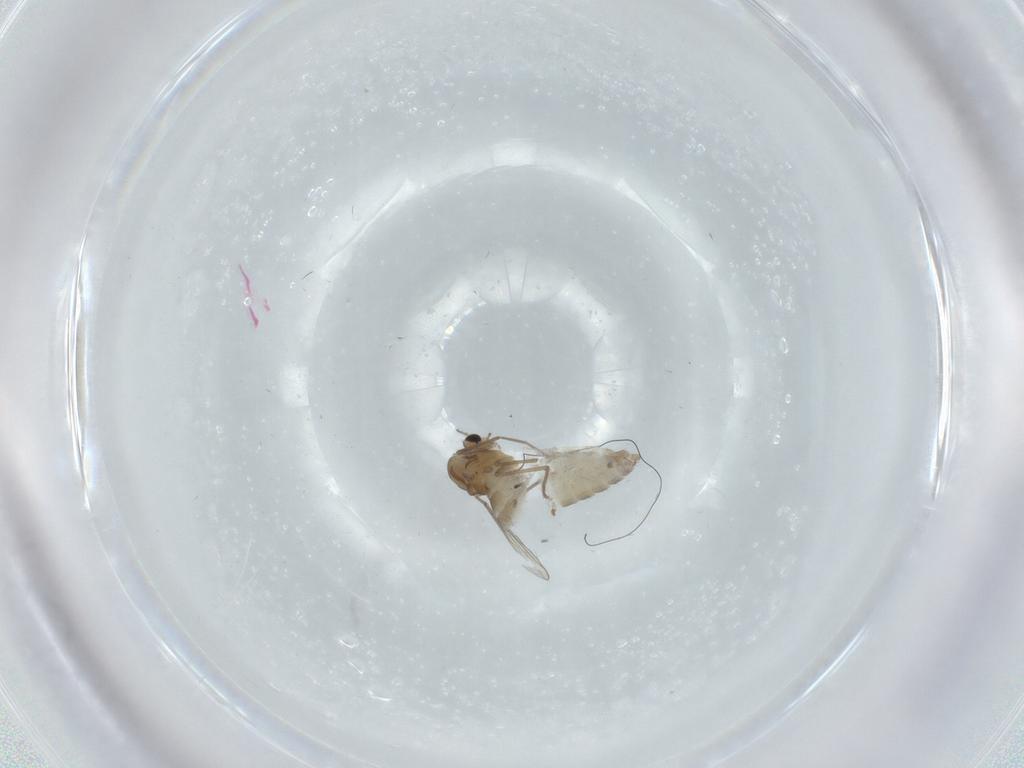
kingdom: Animalia
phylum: Arthropoda
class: Insecta
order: Diptera
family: Chironomidae
